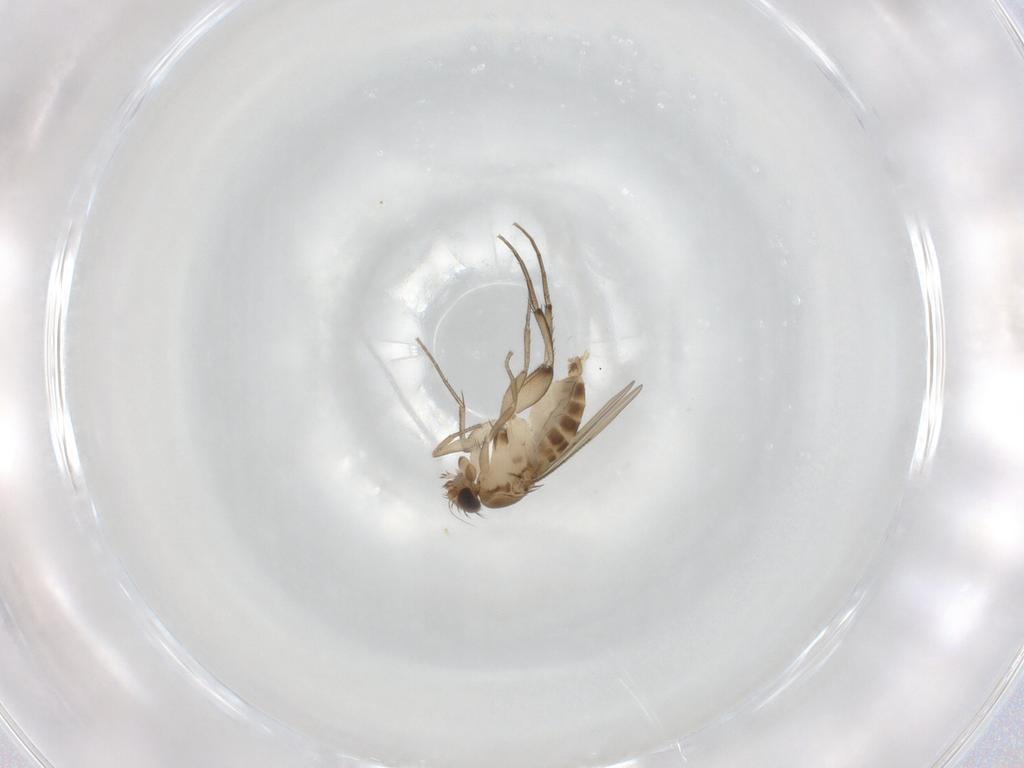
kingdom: Animalia
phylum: Arthropoda
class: Insecta
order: Diptera
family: Phoridae
